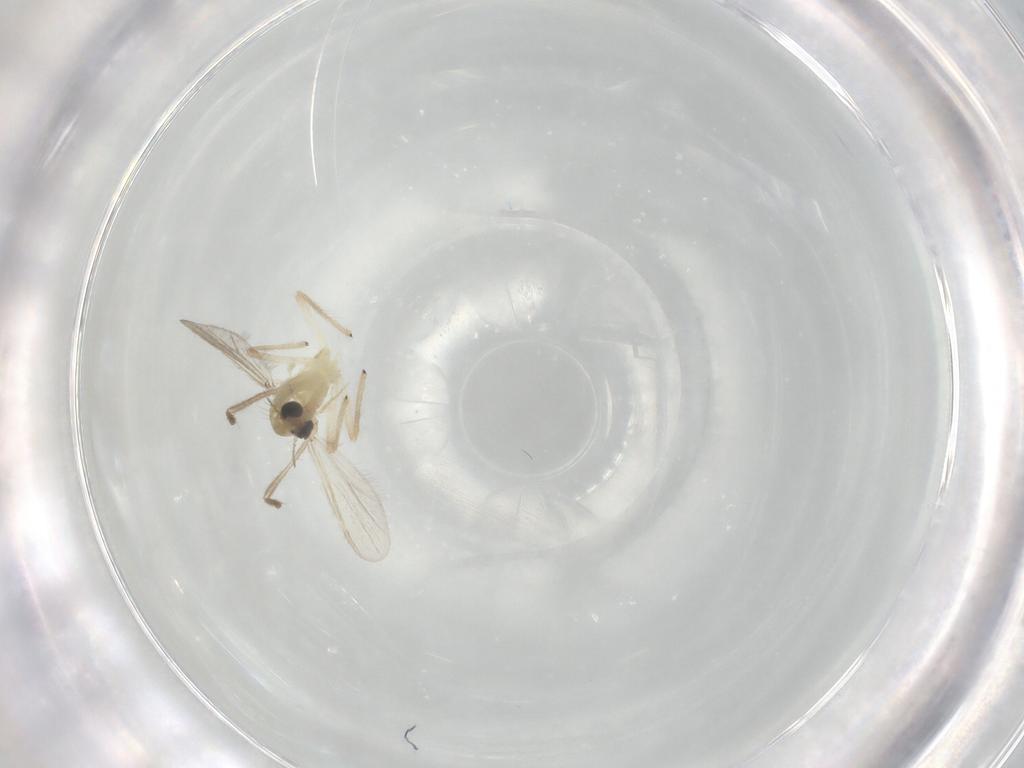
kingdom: Animalia
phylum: Arthropoda
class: Insecta
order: Diptera
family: Chironomidae
